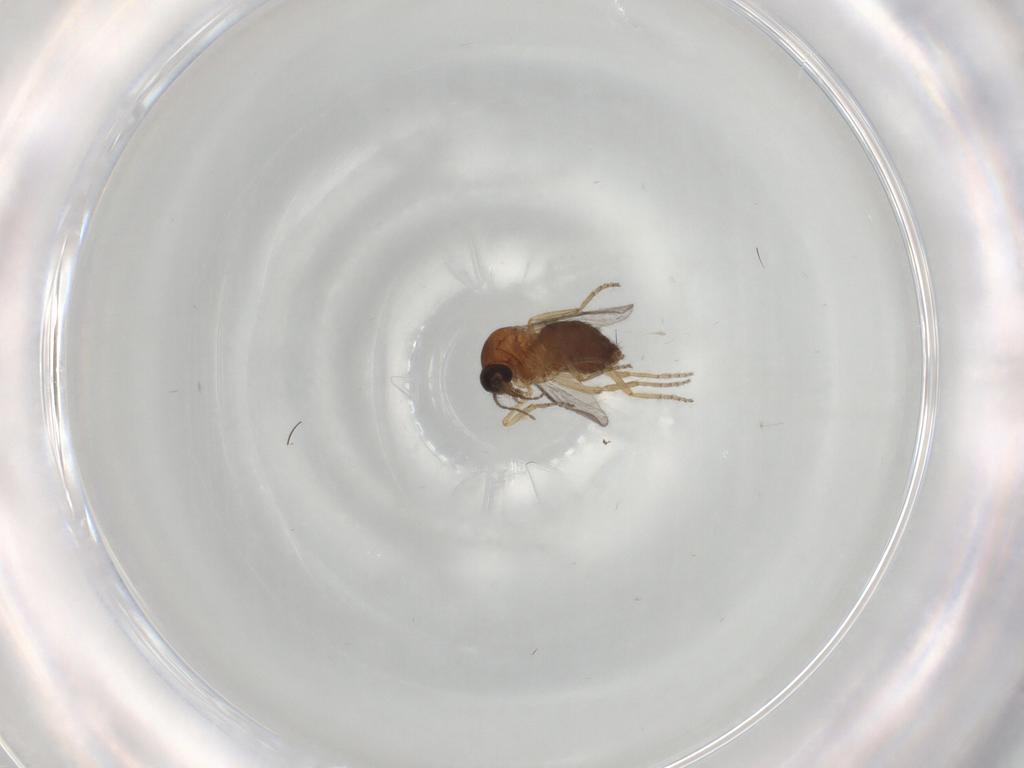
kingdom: Animalia
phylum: Arthropoda
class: Insecta
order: Diptera
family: Ceratopogonidae
